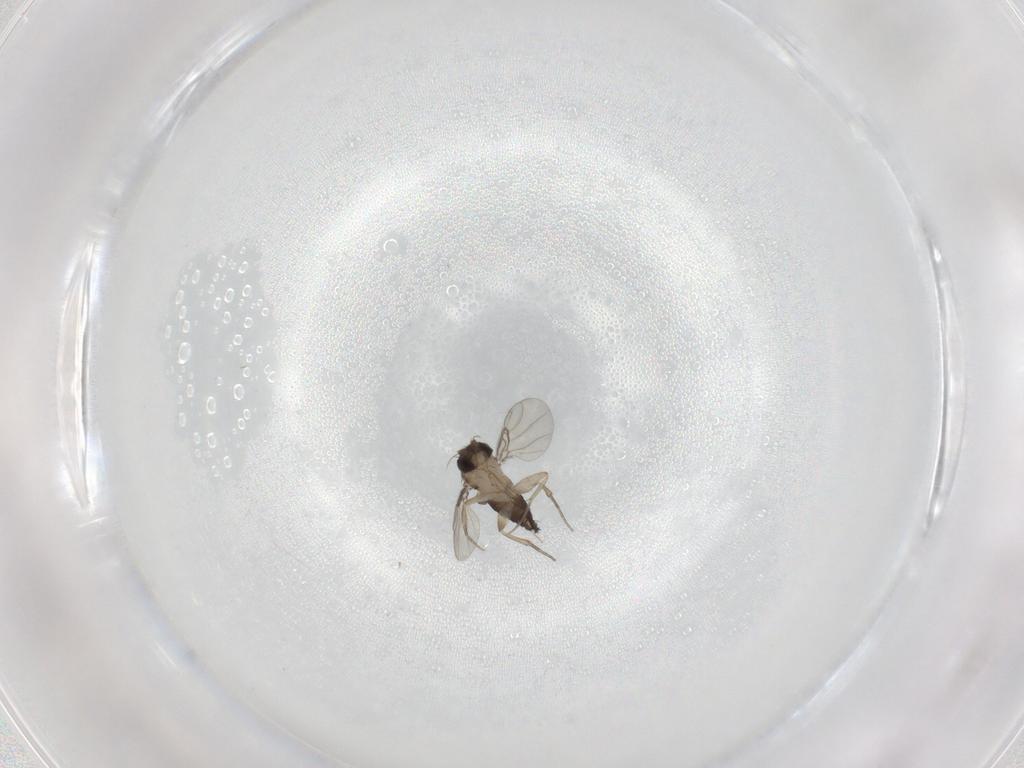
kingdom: Animalia
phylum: Arthropoda
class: Insecta
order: Diptera
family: Phoridae
